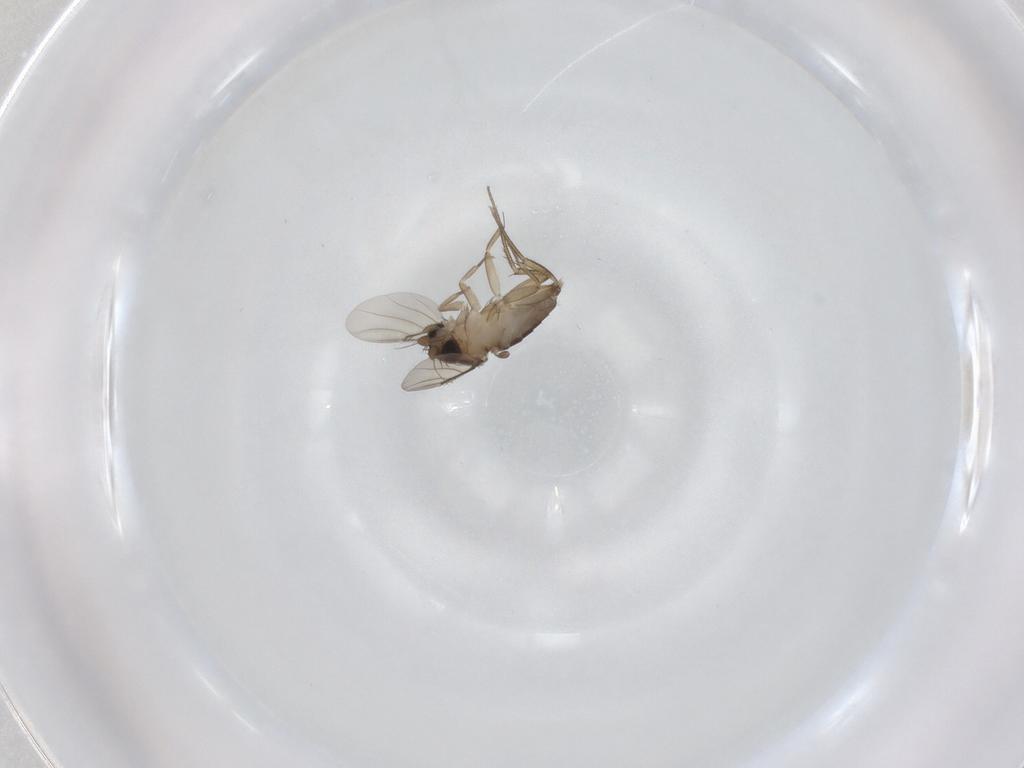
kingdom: Animalia
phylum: Arthropoda
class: Insecta
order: Diptera
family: Phoridae
